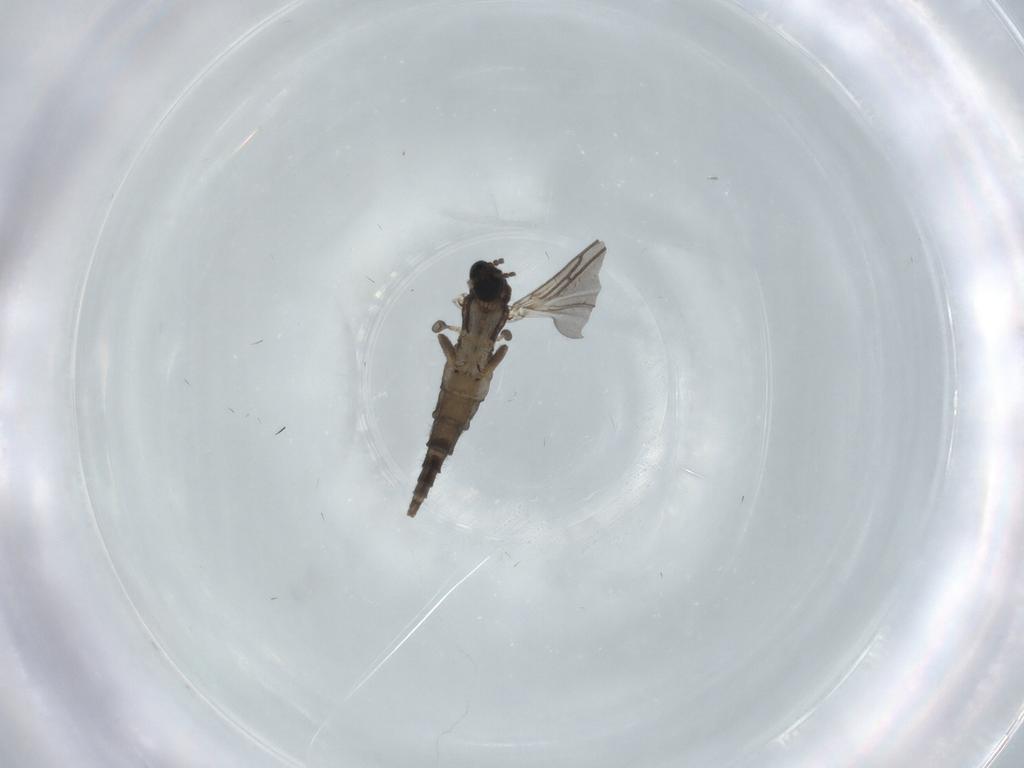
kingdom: Animalia
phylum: Arthropoda
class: Insecta
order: Diptera
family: Sciaridae
